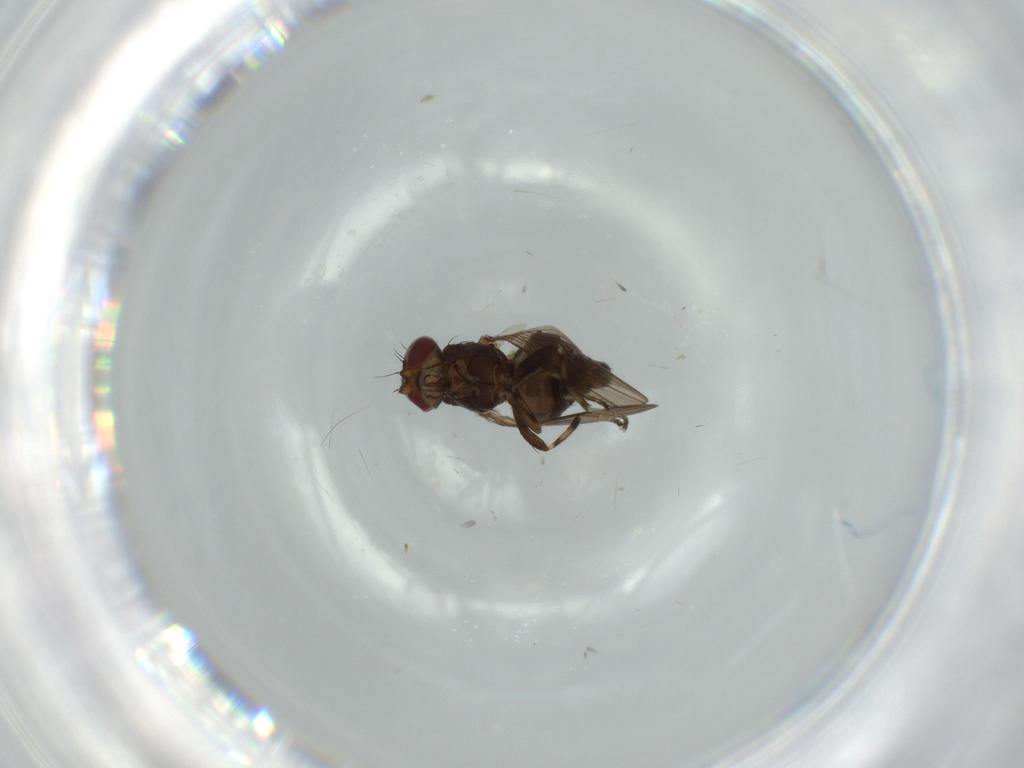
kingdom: Animalia
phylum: Arthropoda
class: Insecta
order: Diptera
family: Heleomyzidae
